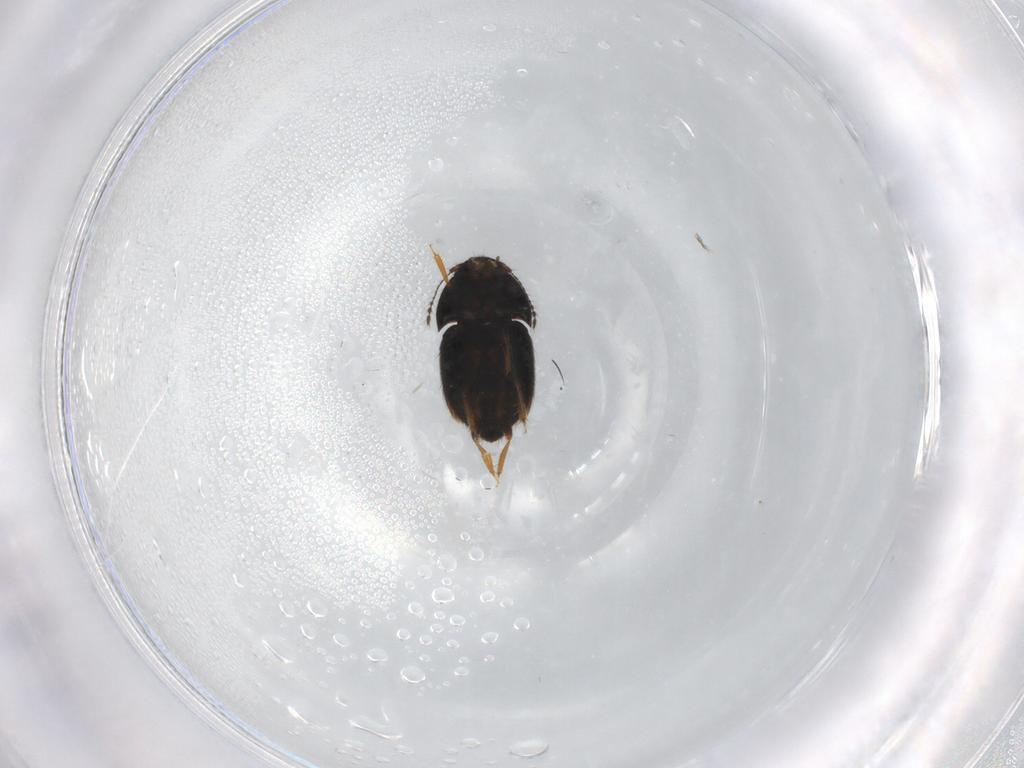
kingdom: Animalia
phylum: Arthropoda
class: Insecta
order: Coleoptera
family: Ptiliidae
